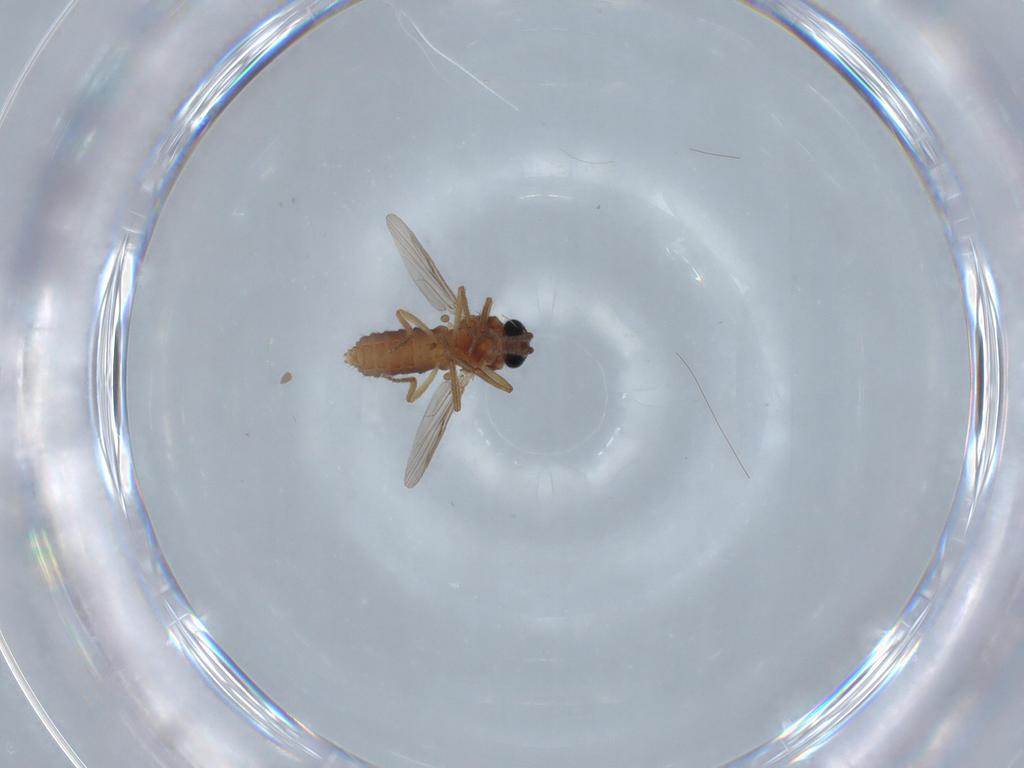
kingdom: Animalia
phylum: Arthropoda
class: Insecta
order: Diptera
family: Ceratopogonidae
